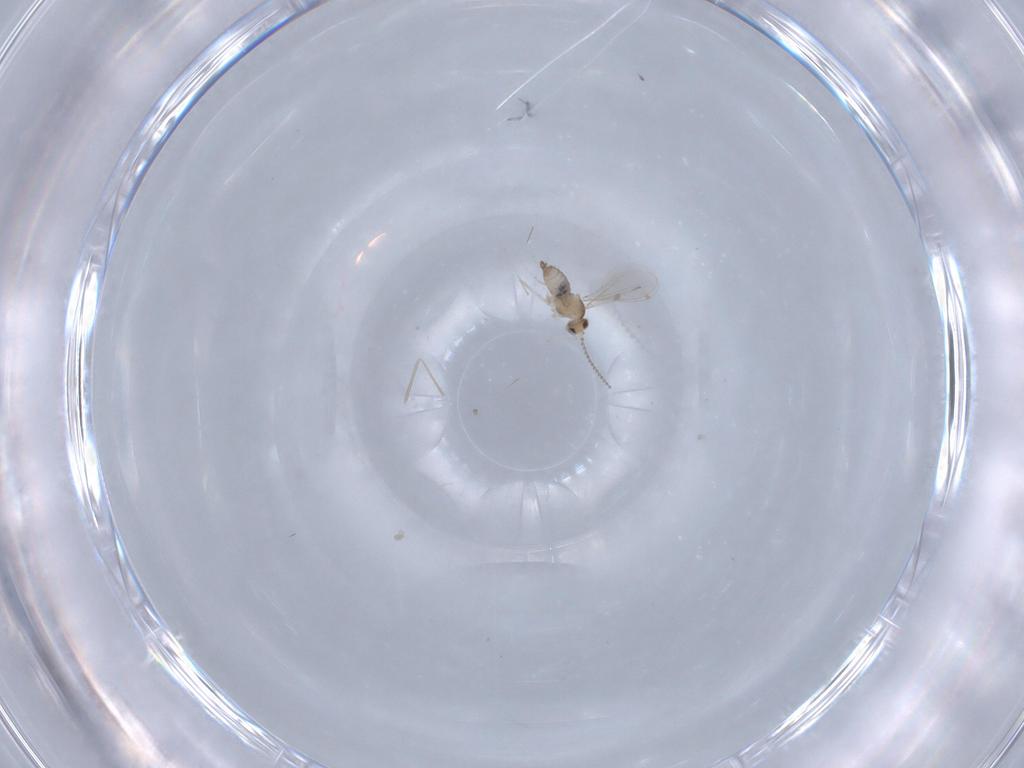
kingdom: Animalia
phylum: Arthropoda
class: Insecta
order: Diptera
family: Cecidomyiidae
